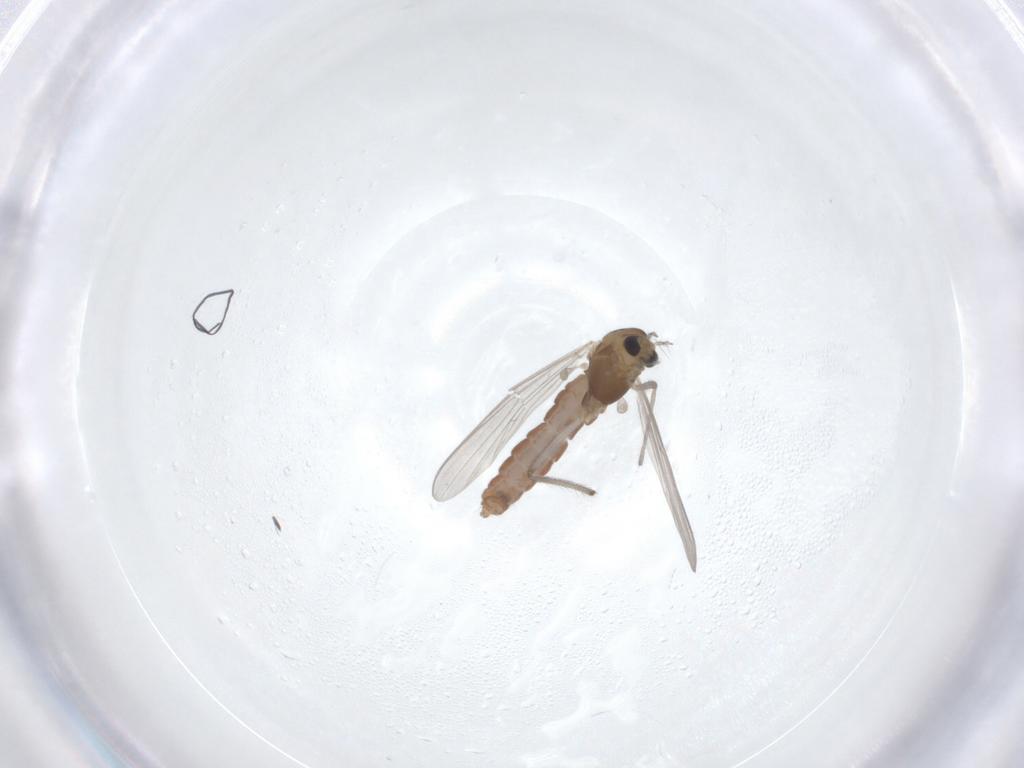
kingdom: Animalia
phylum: Arthropoda
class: Insecta
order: Diptera
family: Chironomidae
